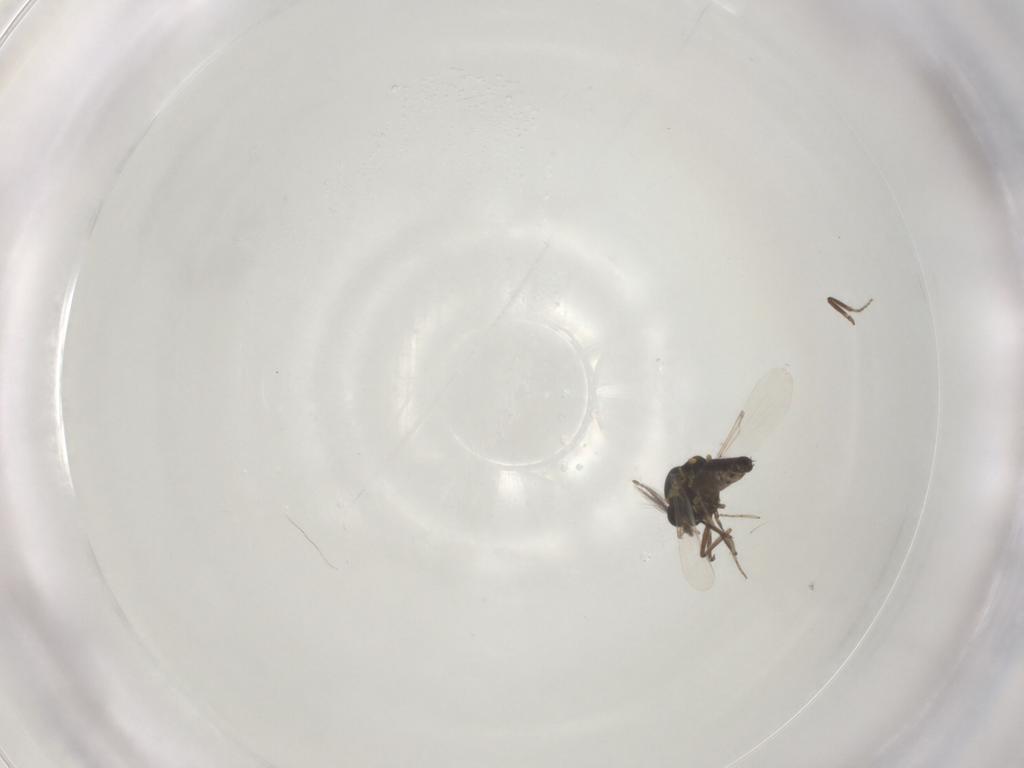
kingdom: Animalia
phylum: Arthropoda
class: Insecta
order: Diptera
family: Ceratopogonidae
